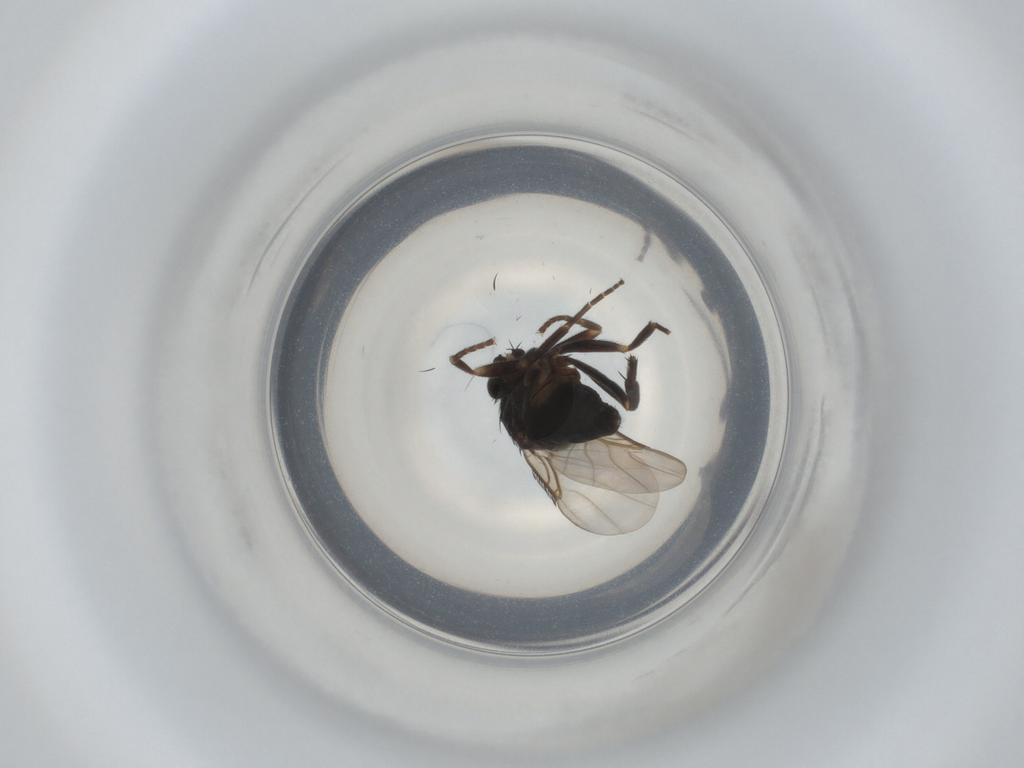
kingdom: Animalia
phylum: Arthropoda
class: Insecta
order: Diptera
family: Phoridae
